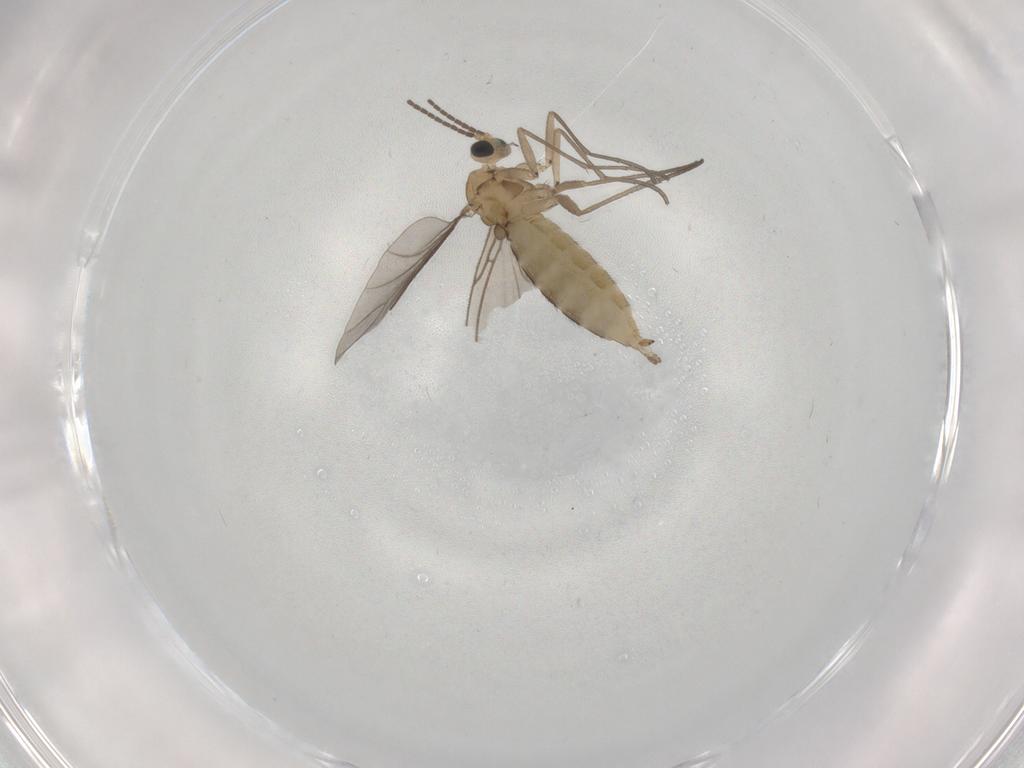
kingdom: Animalia
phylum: Arthropoda
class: Insecta
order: Diptera
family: Sciaridae
